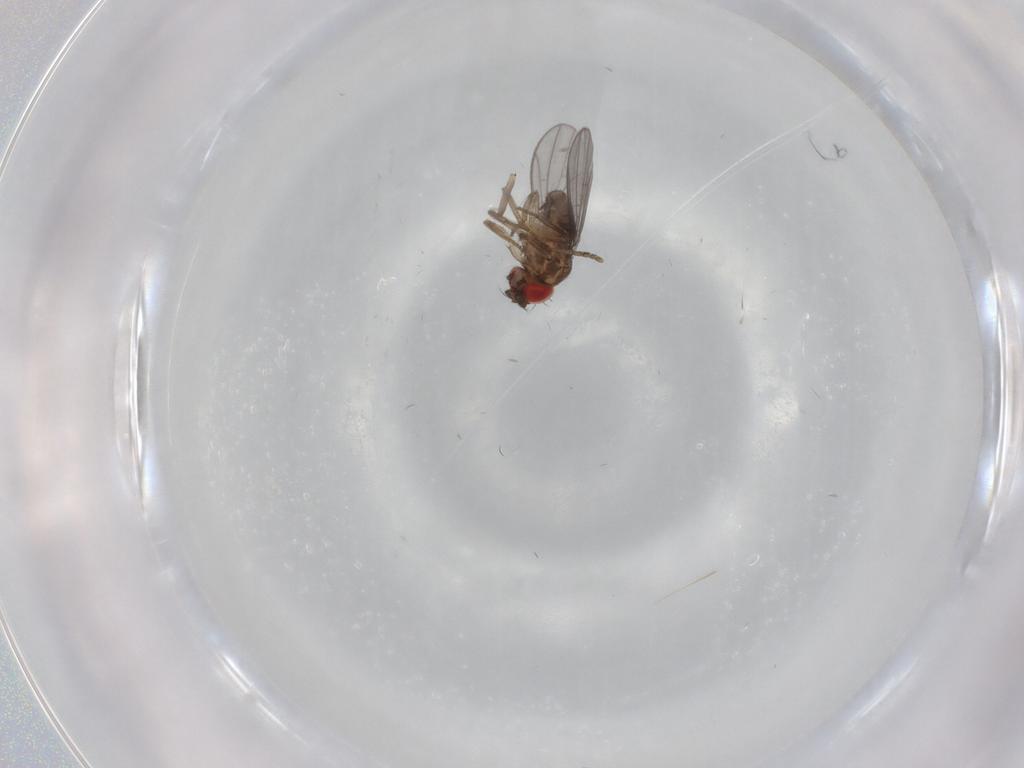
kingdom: Animalia
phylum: Arthropoda
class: Insecta
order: Diptera
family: Drosophilidae
